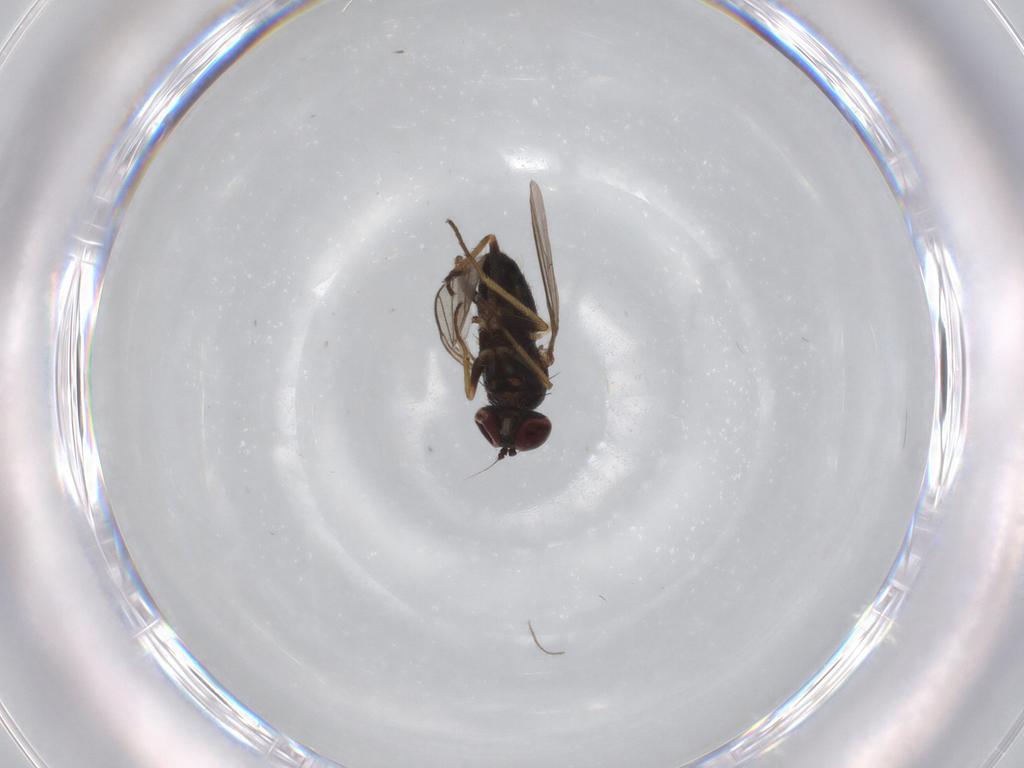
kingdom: Animalia
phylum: Arthropoda
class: Insecta
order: Diptera
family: Dolichopodidae
